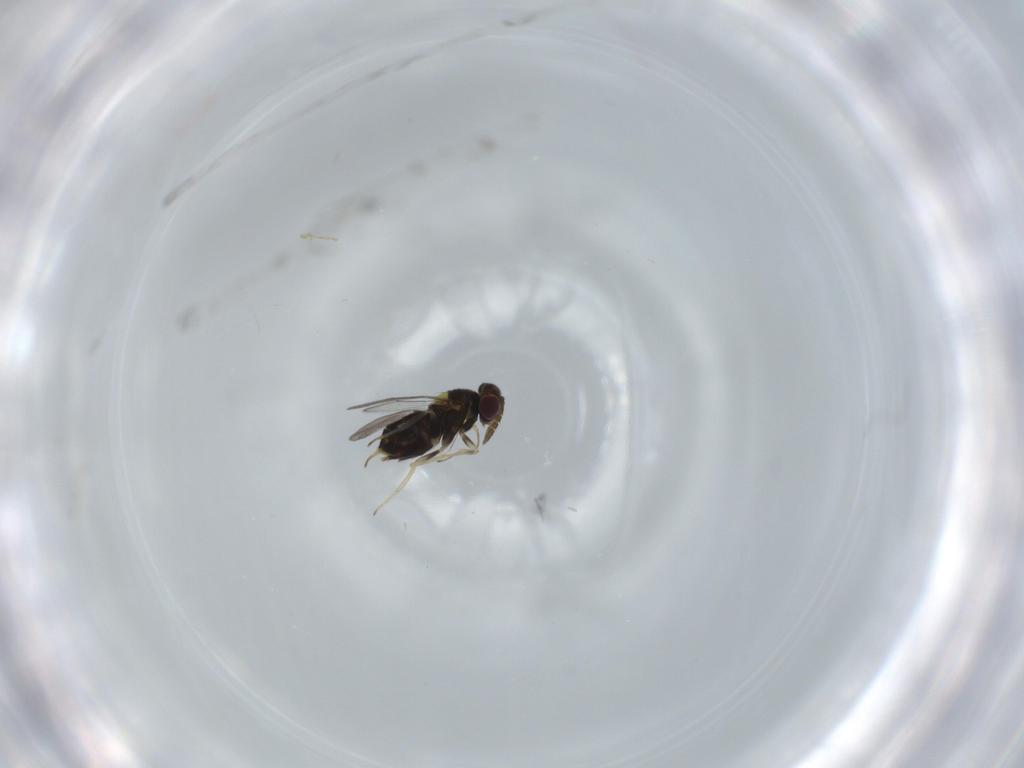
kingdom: Animalia
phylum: Arthropoda
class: Insecta
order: Hymenoptera
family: Aphelinidae
